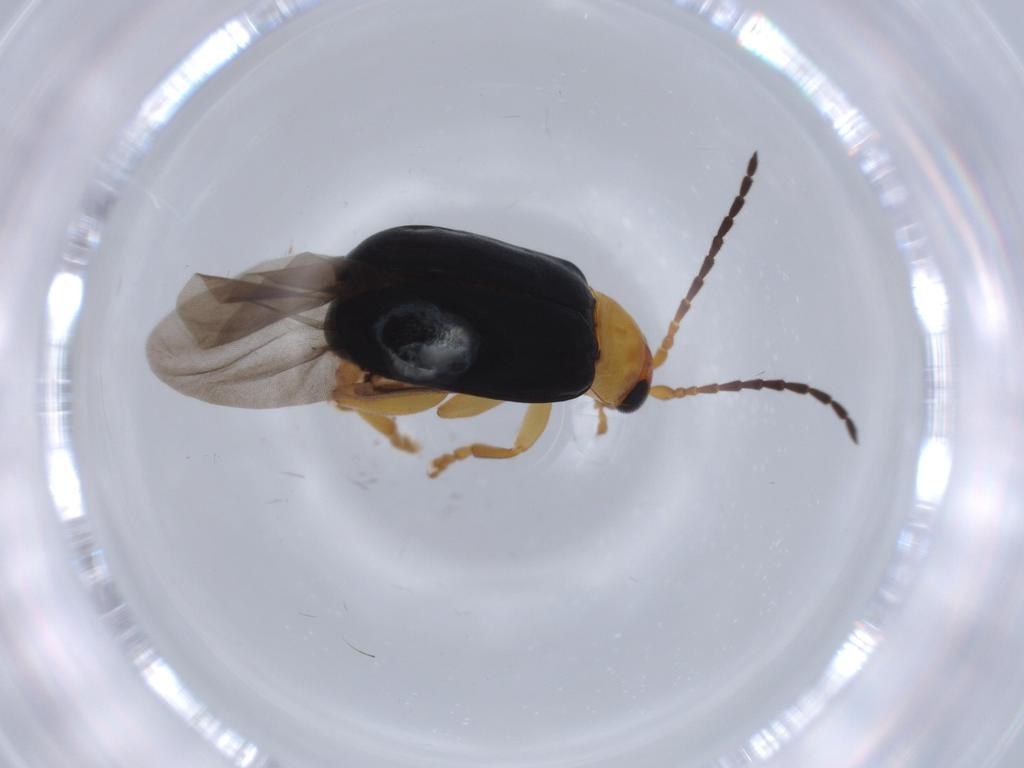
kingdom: Animalia
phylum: Arthropoda
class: Insecta
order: Coleoptera
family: Chrysomelidae
